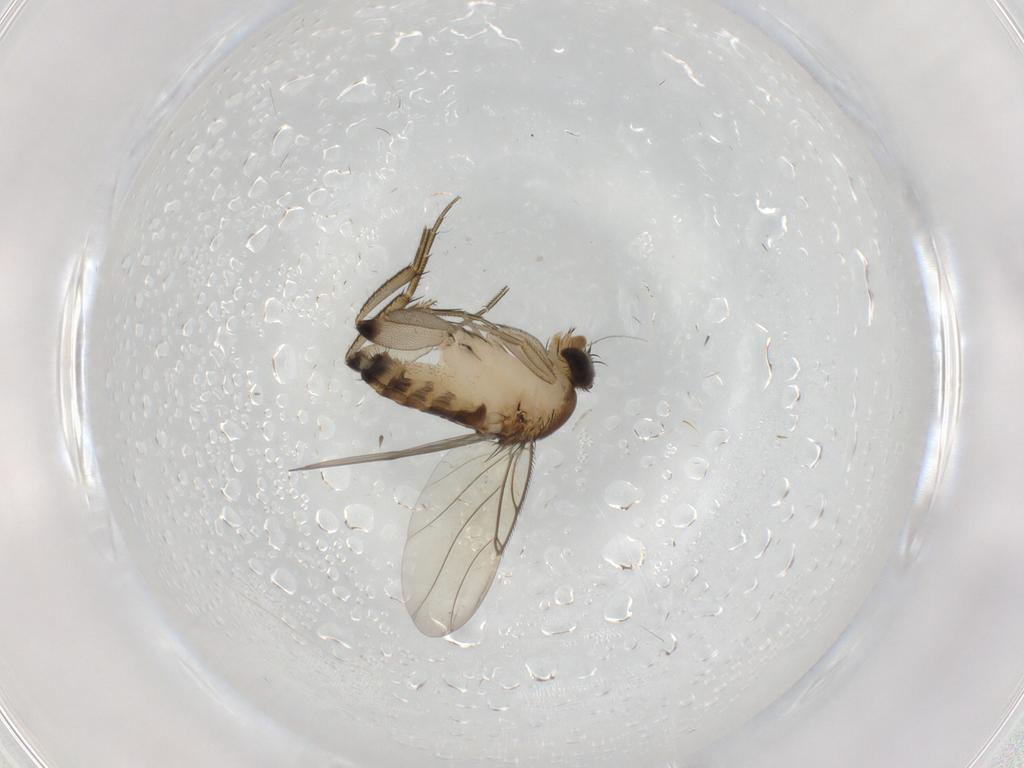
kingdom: Animalia
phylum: Arthropoda
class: Insecta
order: Diptera
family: Phoridae
